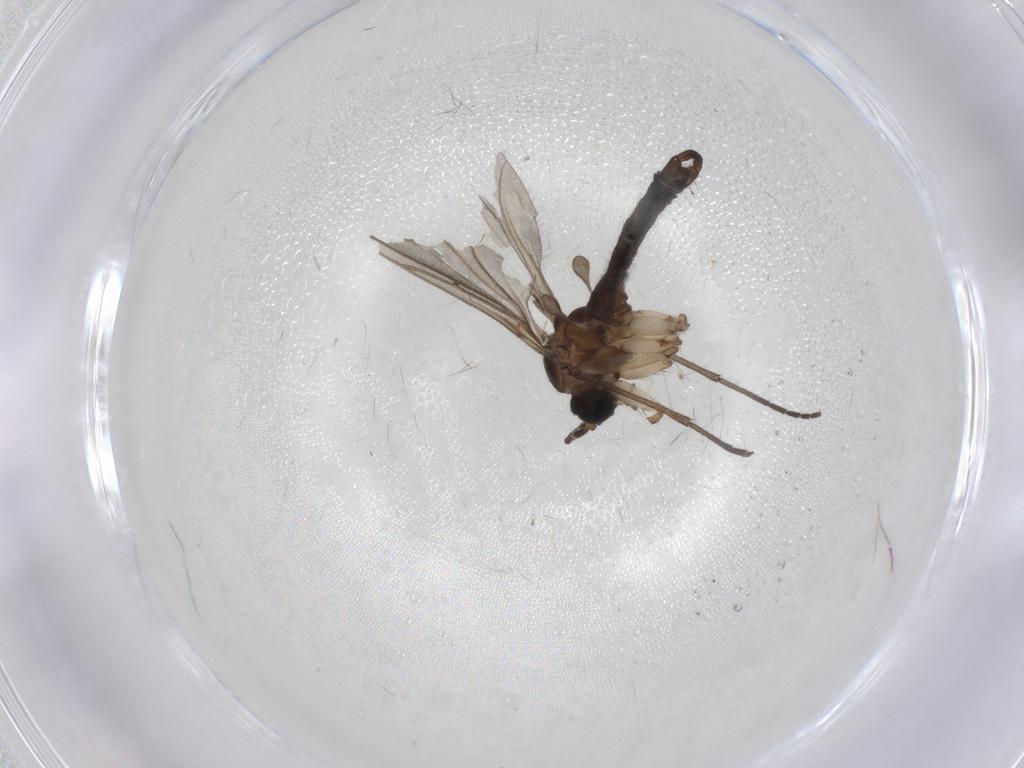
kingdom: Animalia
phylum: Arthropoda
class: Insecta
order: Diptera
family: Sciaridae
